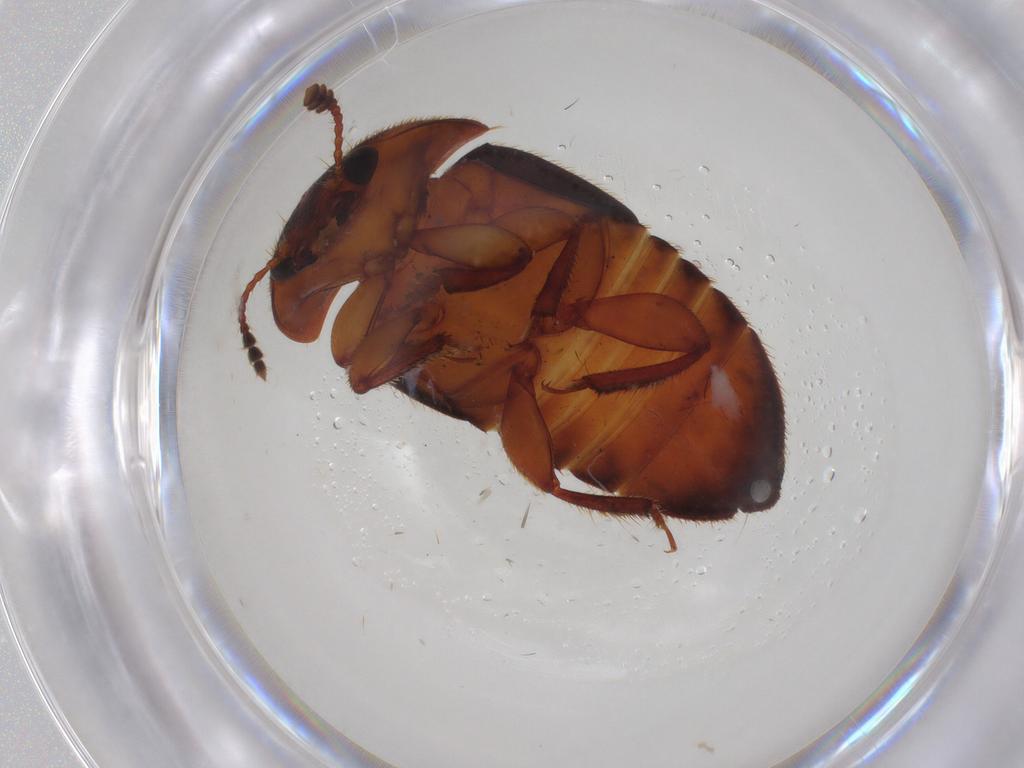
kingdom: Animalia
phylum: Arthropoda
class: Insecta
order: Coleoptera
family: Nitidulidae
